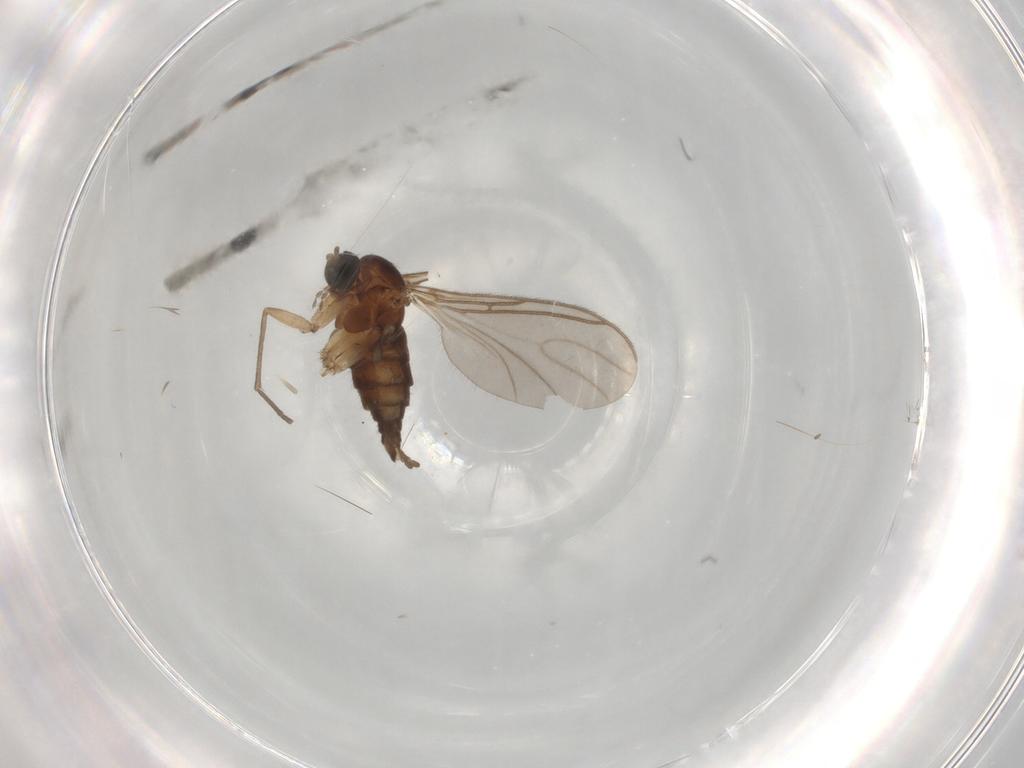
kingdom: Animalia
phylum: Arthropoda
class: Insecta
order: Diptera
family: Sciaridae
